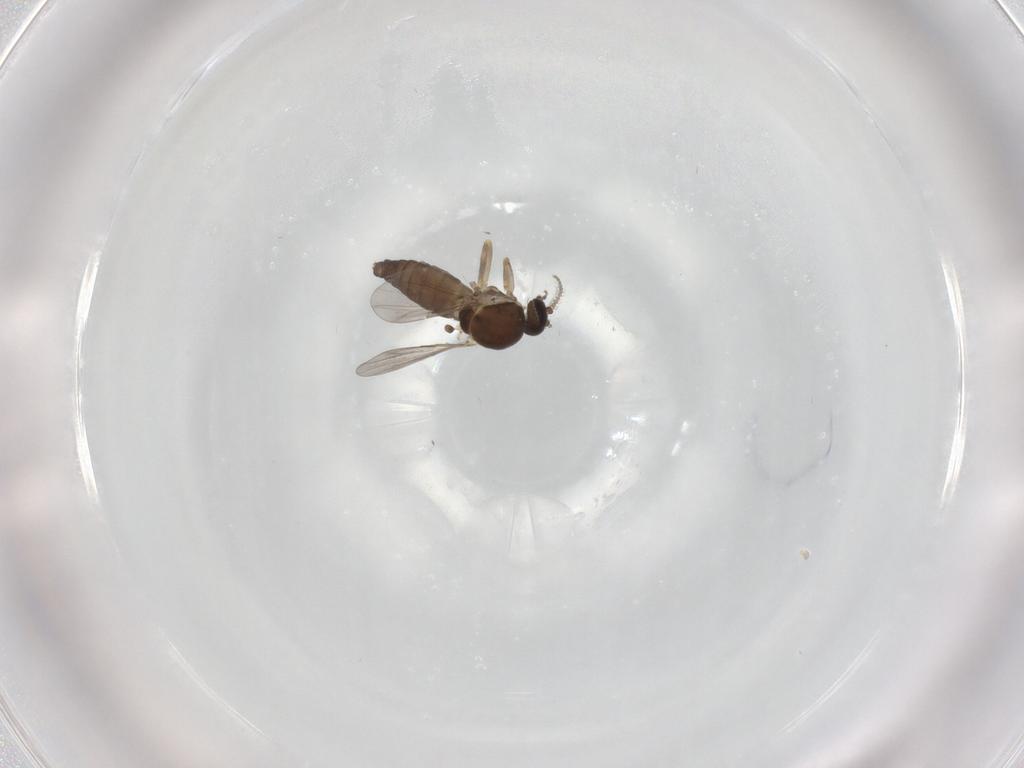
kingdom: Animalia
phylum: Arthropoda
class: Insecta
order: Diptera
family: Ceratopogonidae
